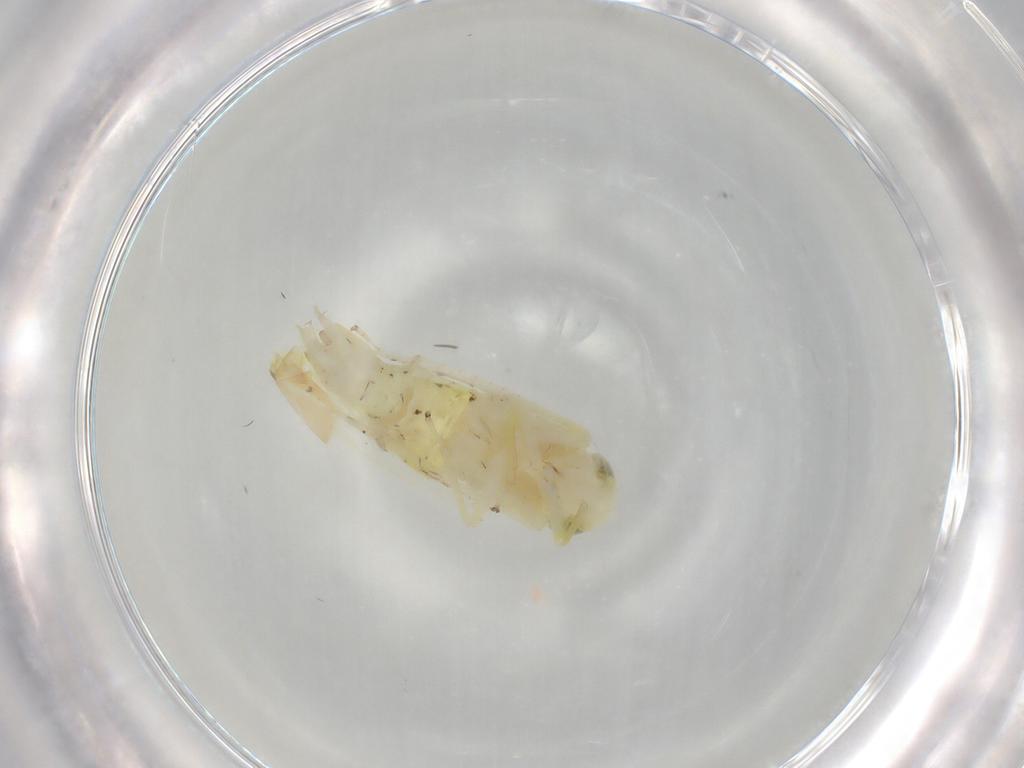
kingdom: Animalia
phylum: Arthropoda
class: Insecta
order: Hemiptera
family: Cicadellidae
